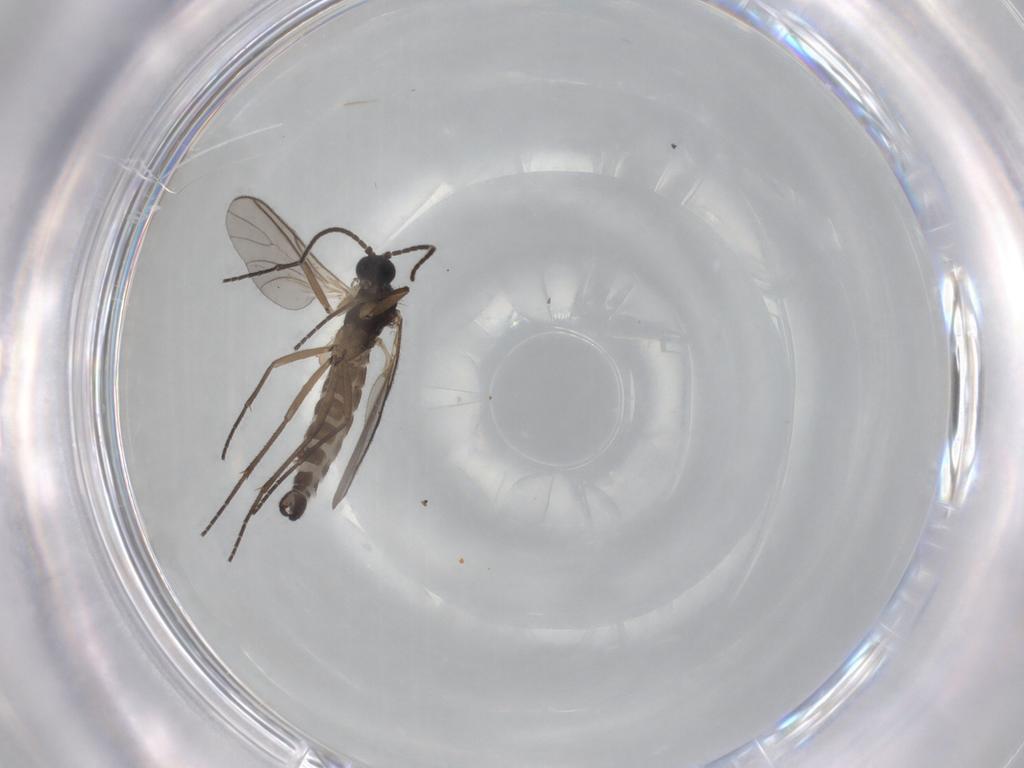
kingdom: Animalia
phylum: Arthropoda
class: Insecta
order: Diptera
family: Sciaridae
